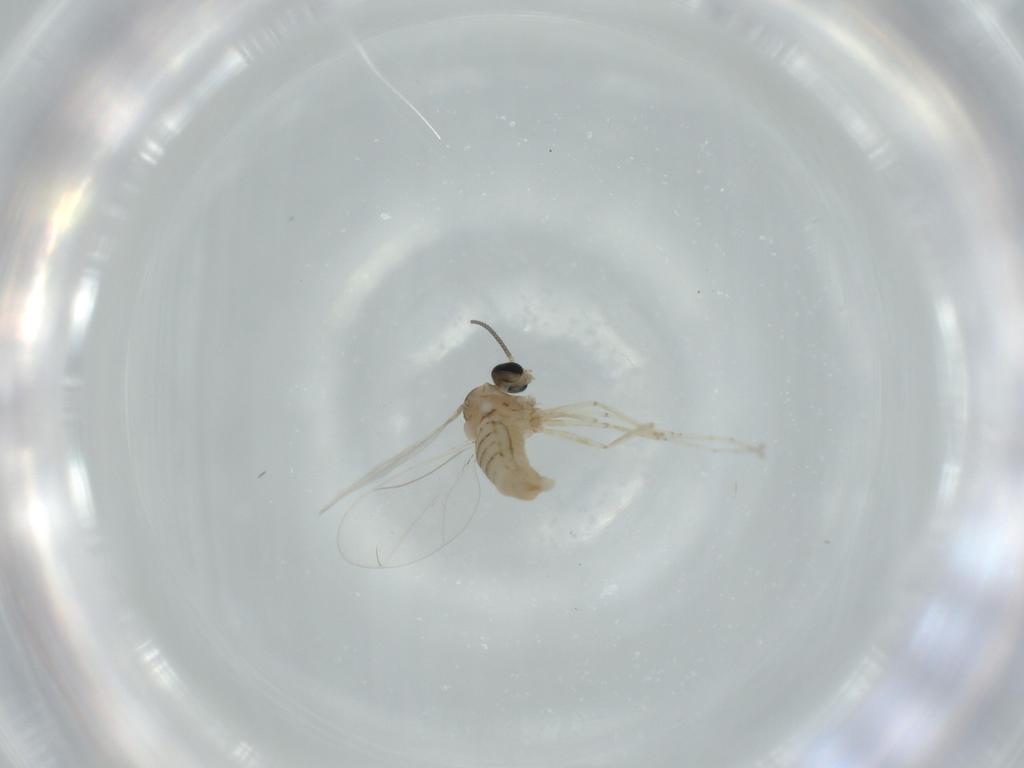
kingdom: Animalia
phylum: Arthropoda
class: Insecta
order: Diptera
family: Cecidomyiidae
